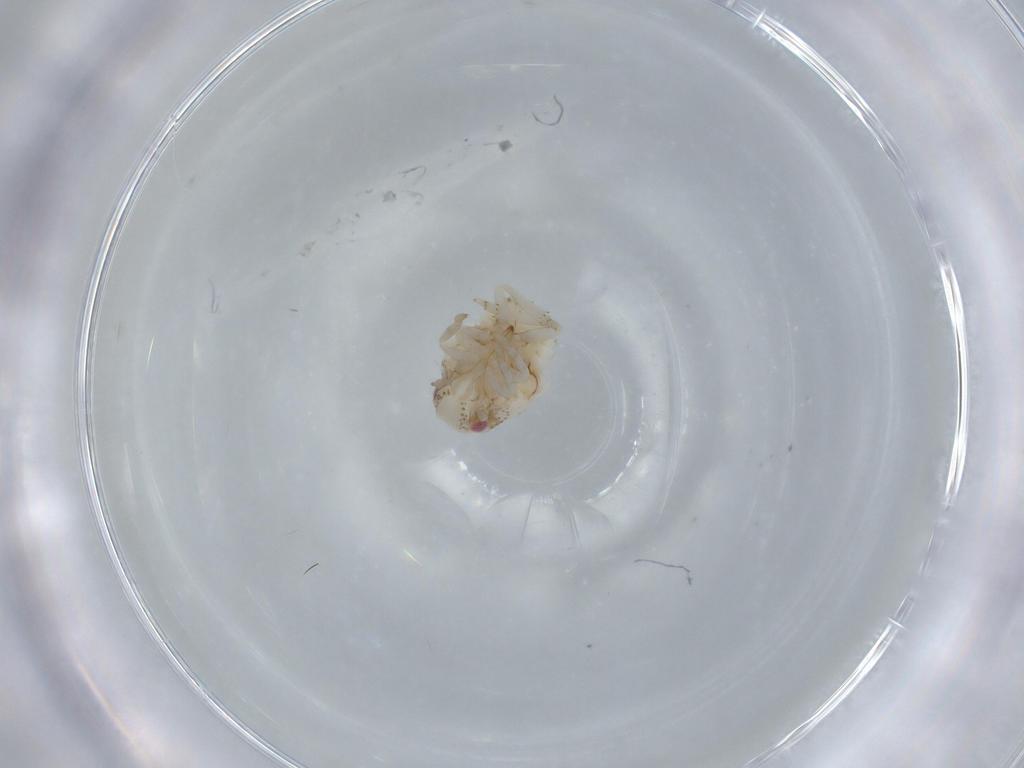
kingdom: Animalia
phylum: Arthropoda
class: Insecta
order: Hemiptera
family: Acanaloniidae
